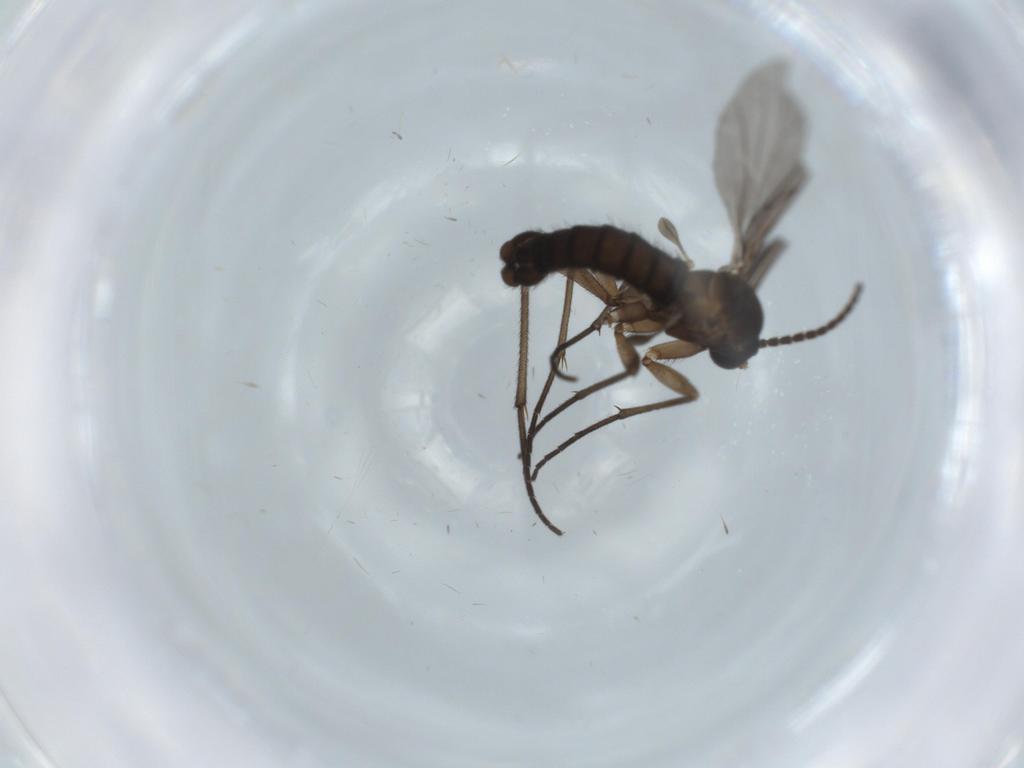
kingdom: Animalia
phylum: Arthropoda
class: Insecta
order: Diptera
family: Sciaridae
